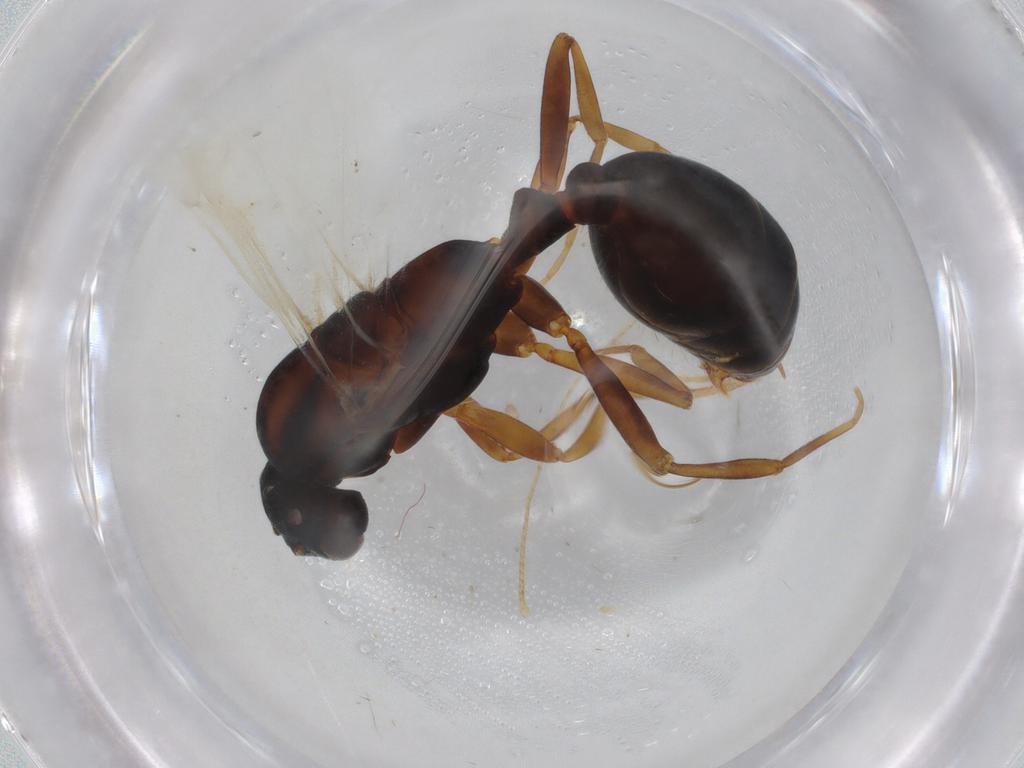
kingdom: Animalia
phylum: Arthropoda
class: Insecta
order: Hymenoptera
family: Formicidae
